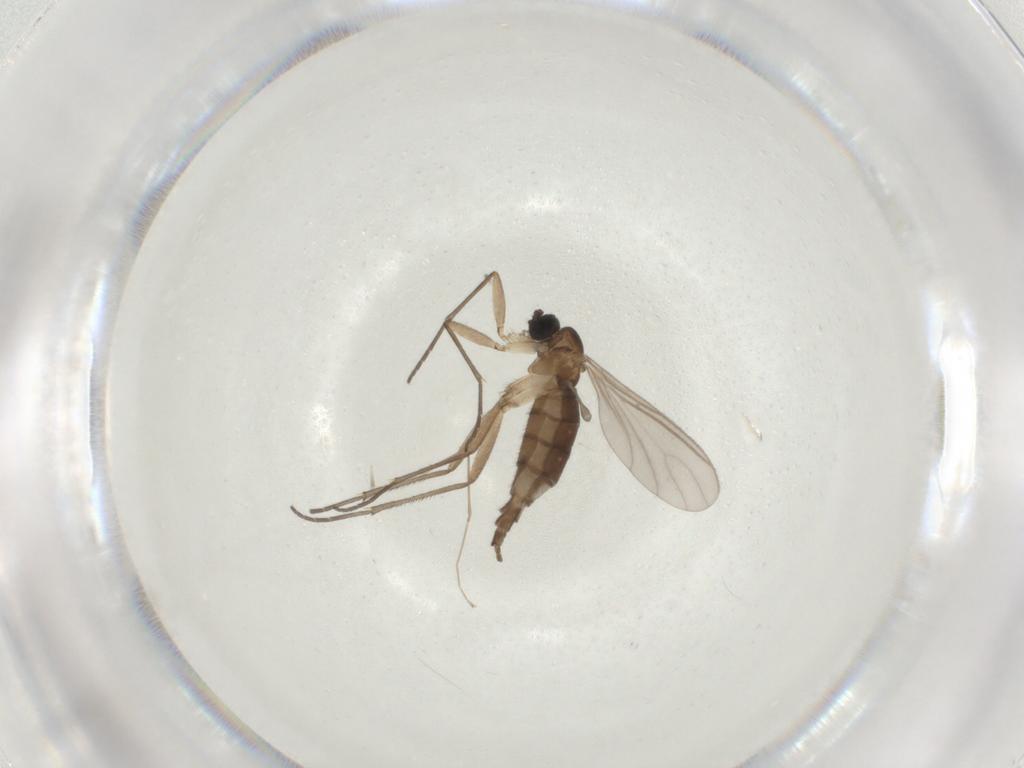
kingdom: Animalia
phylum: Arthropoda
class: Insecta
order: Diptera
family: Sciaridae
